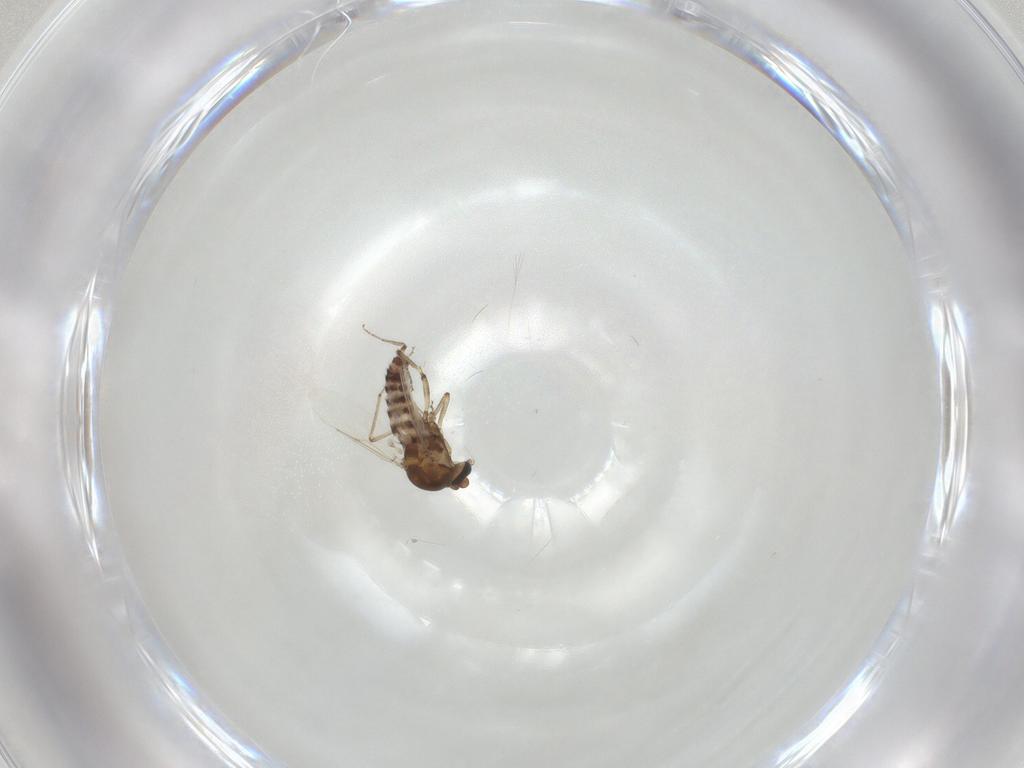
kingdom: Animalia
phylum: Arthropoda
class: Insecta
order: Diptera
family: Ceratopogonidae
